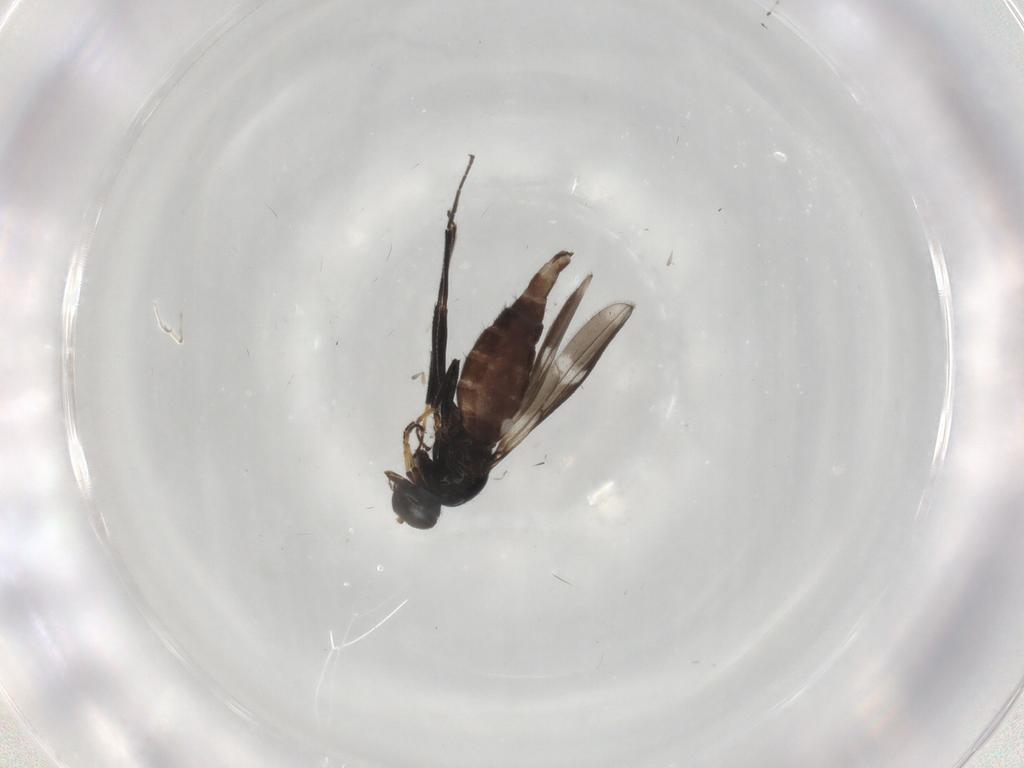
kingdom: Animalia
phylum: Arthropoda
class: Insecta
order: Diptera
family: Hybotidae
